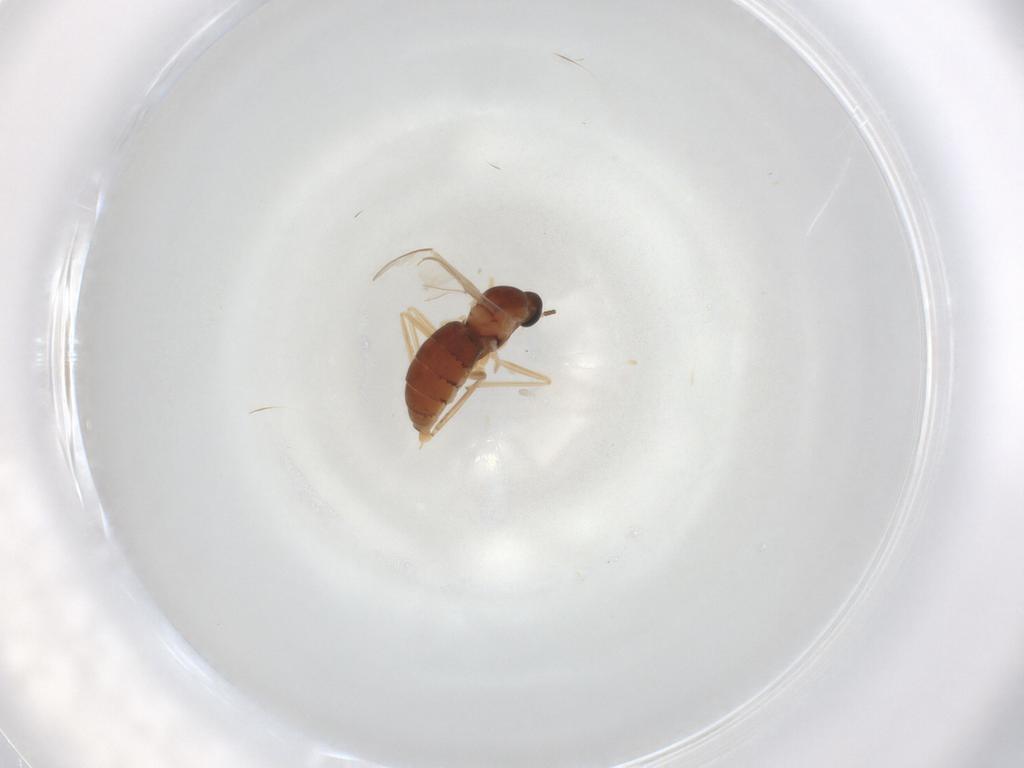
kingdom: Animalia
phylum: Arthropoda
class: Insecta
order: Diptera
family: Cecidomyiidae
